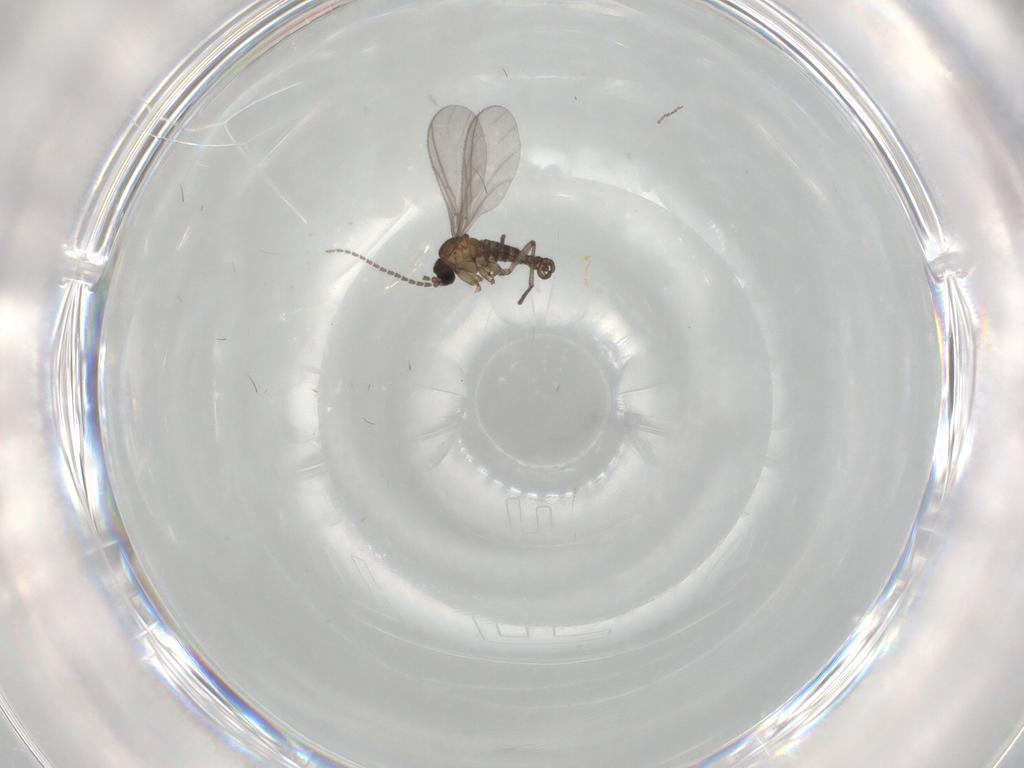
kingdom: Animalia
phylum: Arthropoda
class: Insecta
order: Diptera
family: Sciaridae
